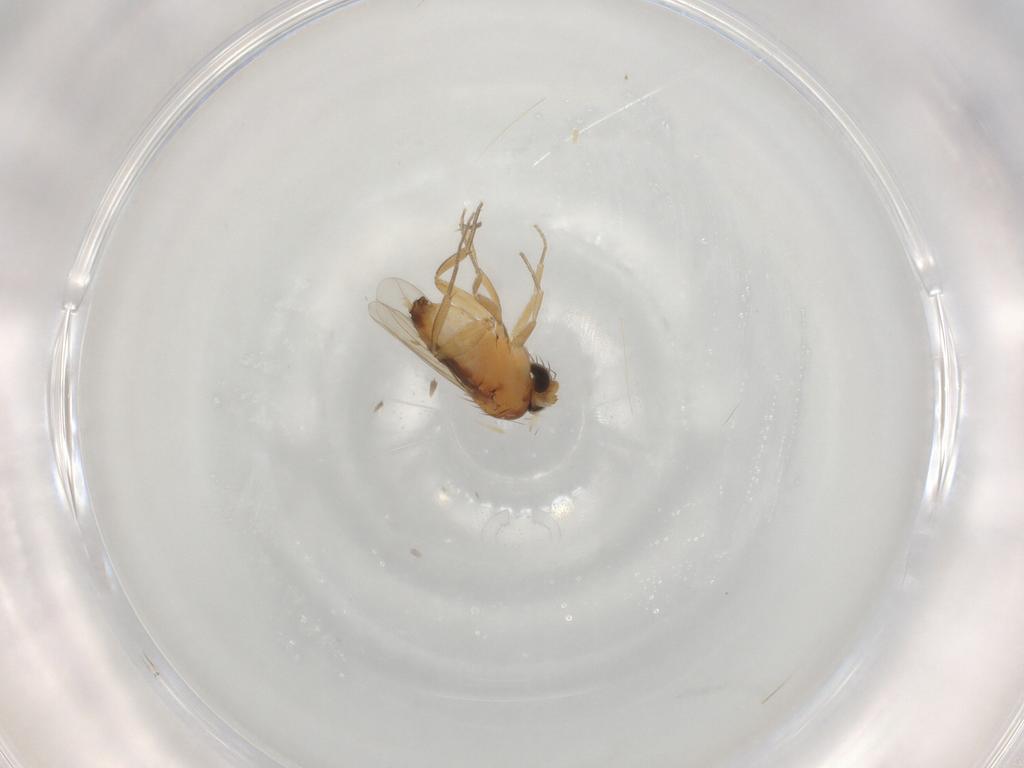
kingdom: Animalia
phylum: Arthropoda
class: Insecta
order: Diptera
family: Phoridae
